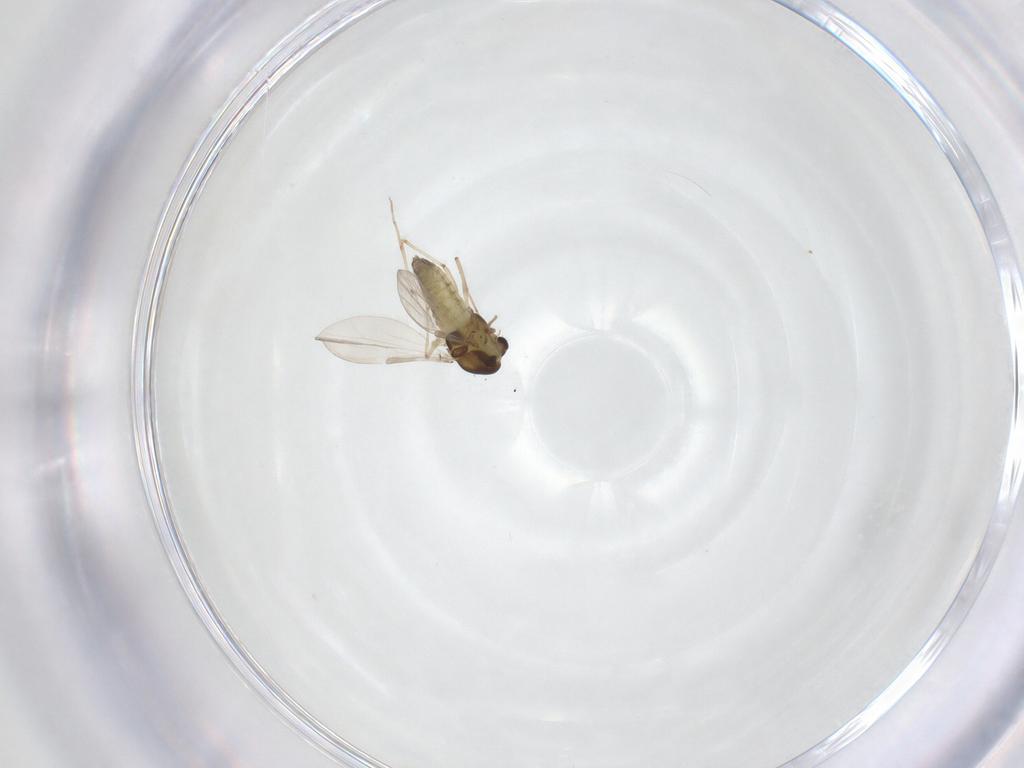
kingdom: Animalia
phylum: Arthropoda
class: Insecta
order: Diptera
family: Chironomidae
